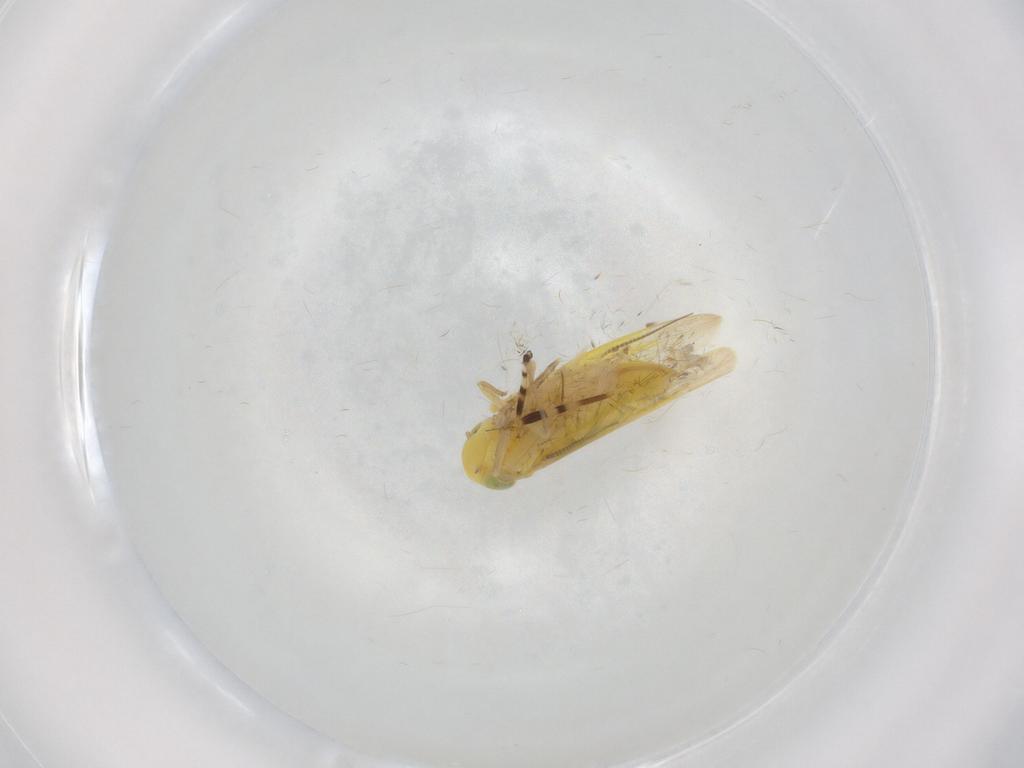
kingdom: Animalia
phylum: Arthropoda
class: Insecta
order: Hemiptera
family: Cicadellidae
